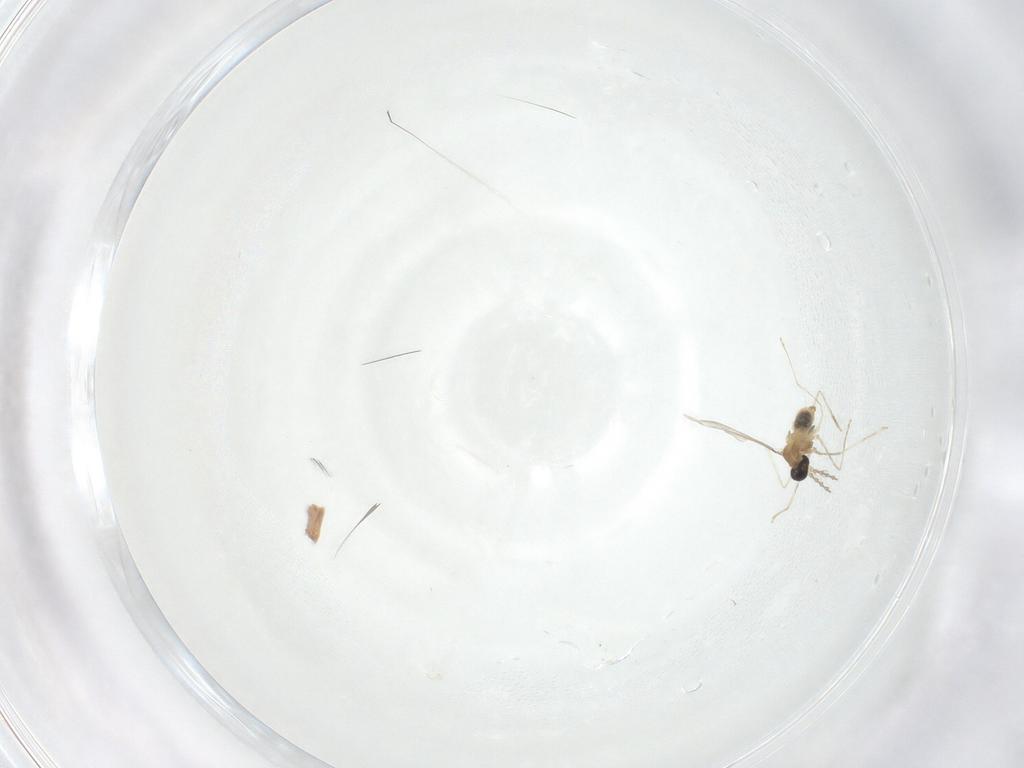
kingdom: Animalia
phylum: Arthropoda
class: Insecta
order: Diptera
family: Cecidomyiidae
